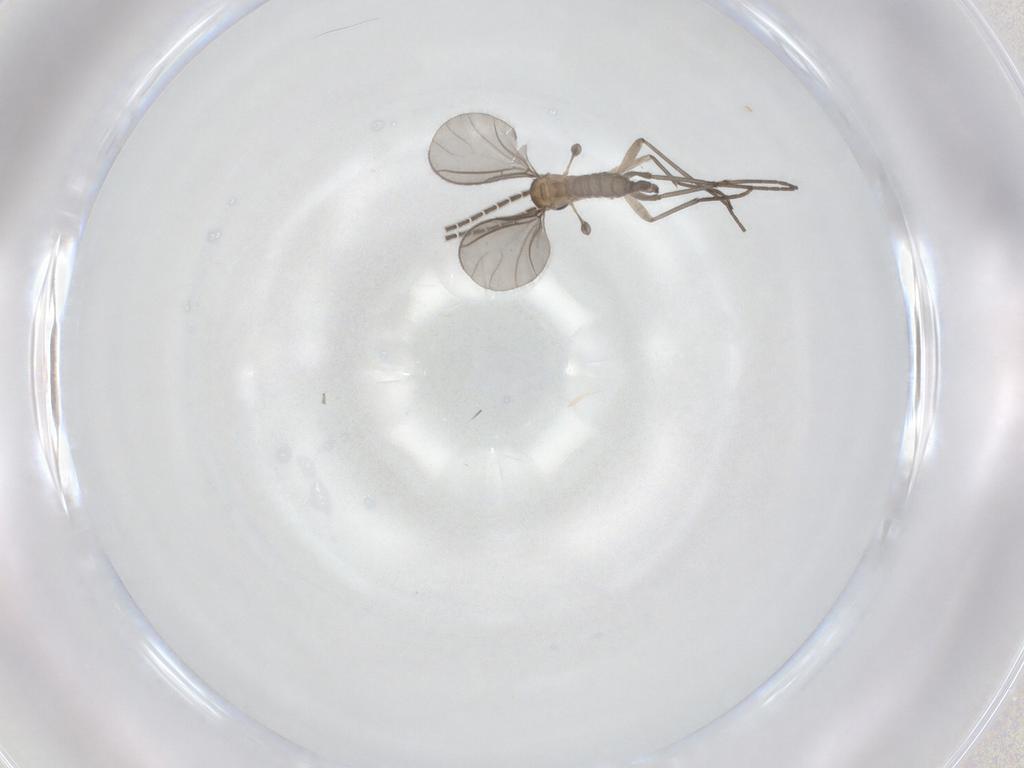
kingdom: Animalia
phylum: Arthropoda
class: Insecta
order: Diptera
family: Sciaridae
